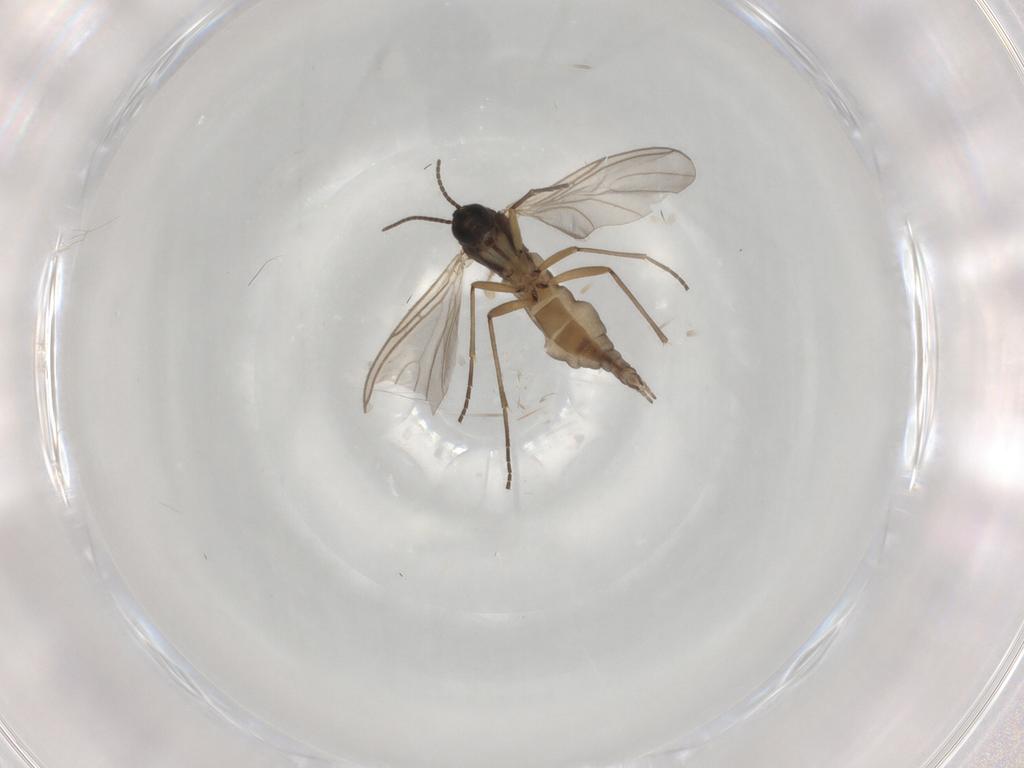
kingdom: Animalia
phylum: Arthropoda
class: Insecta
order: Diptera
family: Sciaridae
